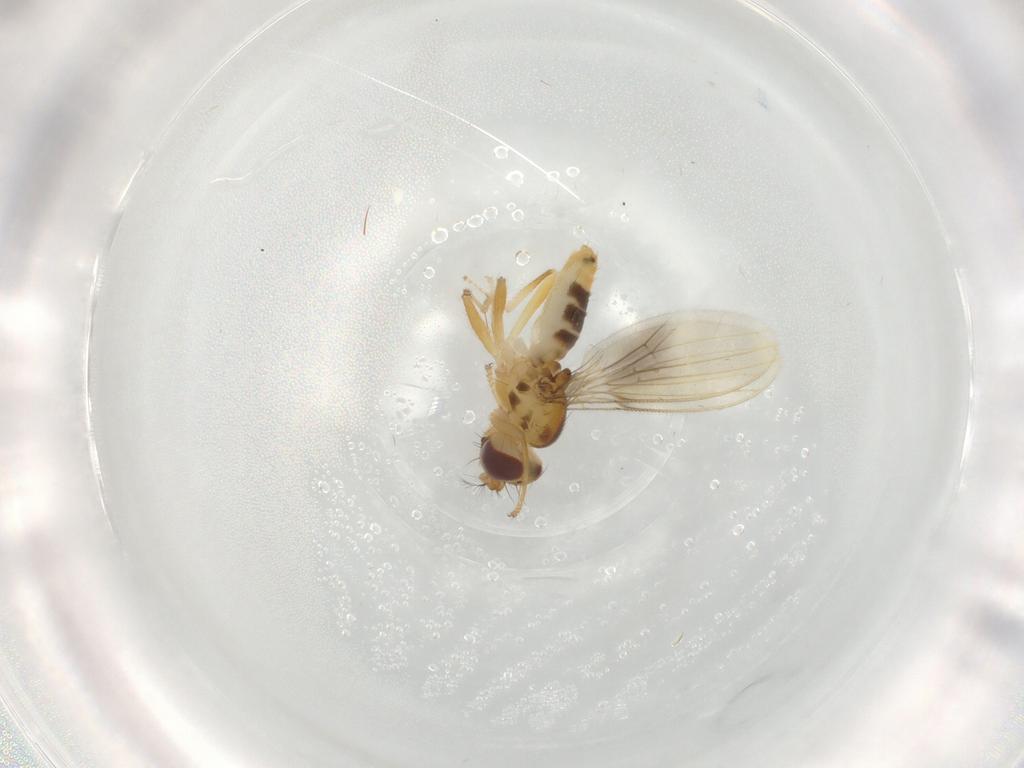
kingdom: Animalia
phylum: Arthropoda
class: Insecta
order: Diptera
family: Periscelididae
